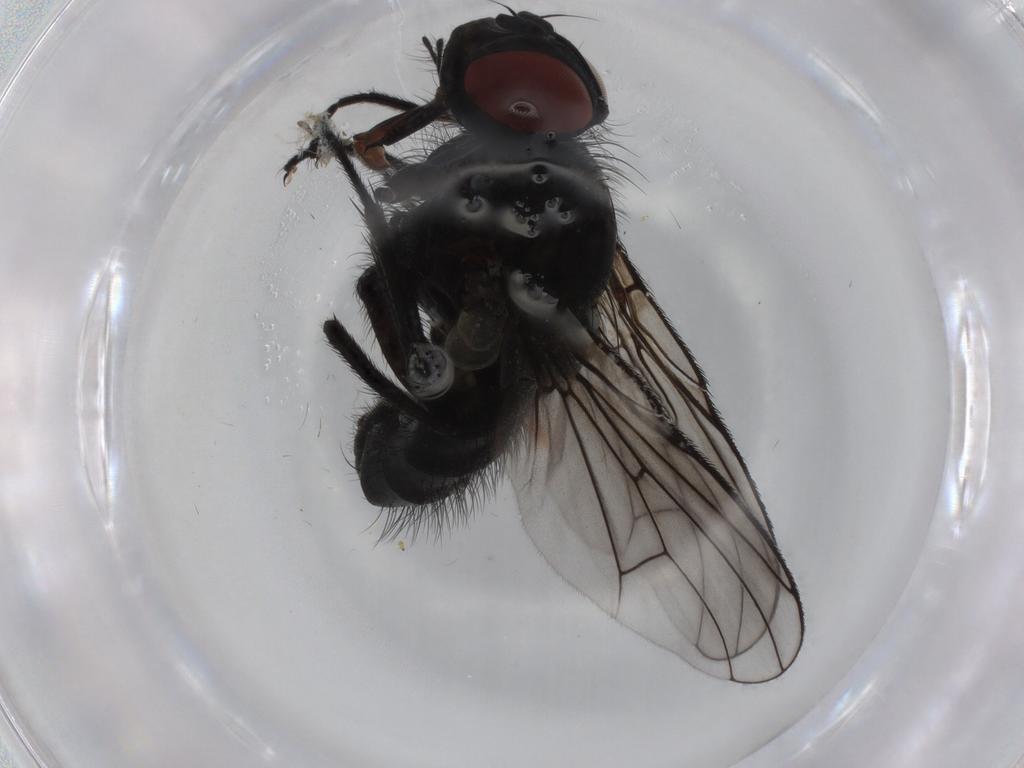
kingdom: Animalia
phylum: Arthropoda
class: Insecta
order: Diptera
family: Muscidae
